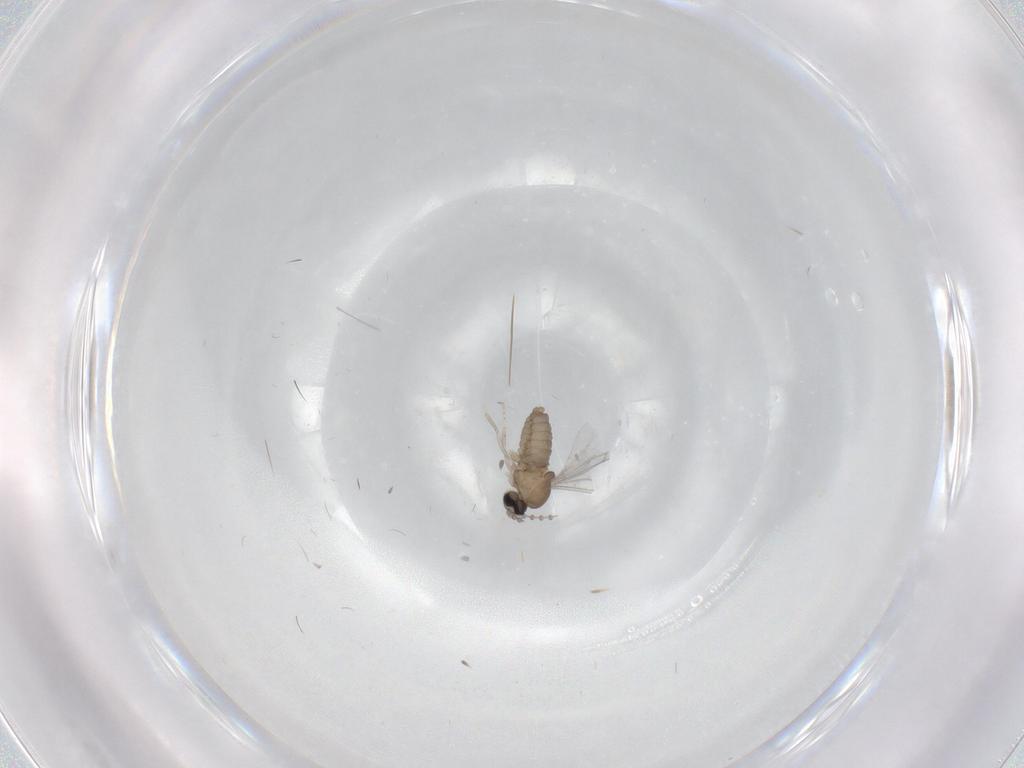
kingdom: Animalia
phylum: Arthropoda
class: Insecta
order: Diptera
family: Cecidomyiidae
